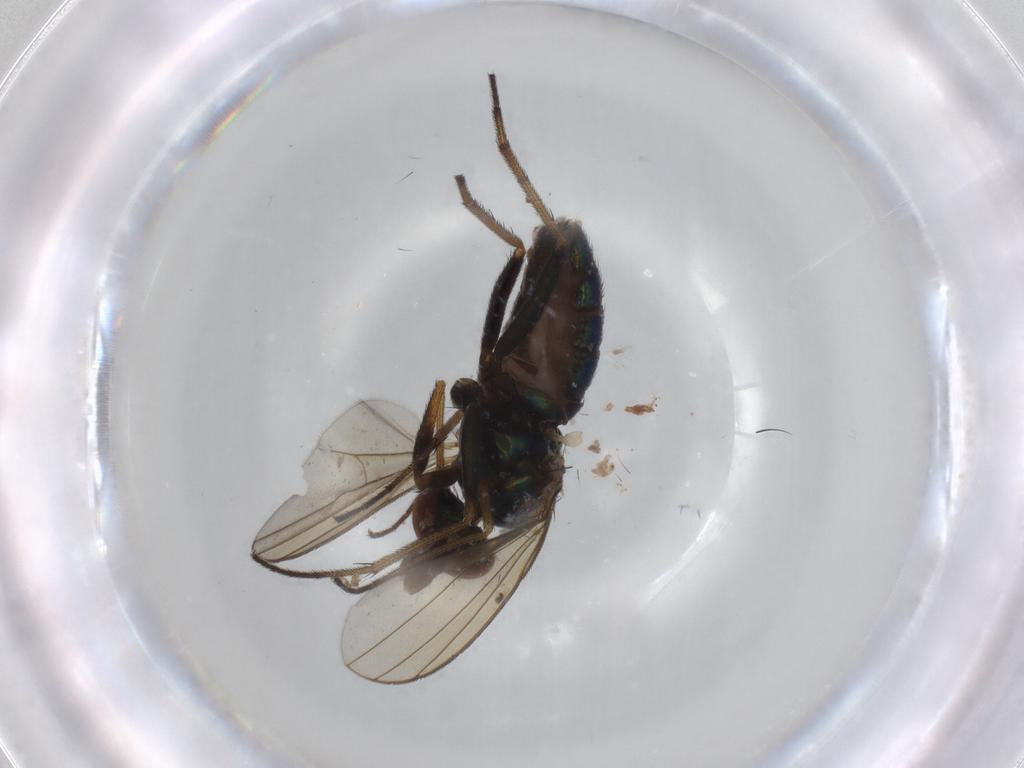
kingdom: Animalia
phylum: Arthropoda
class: Insecta
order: Diptera
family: Dolichopodidae
